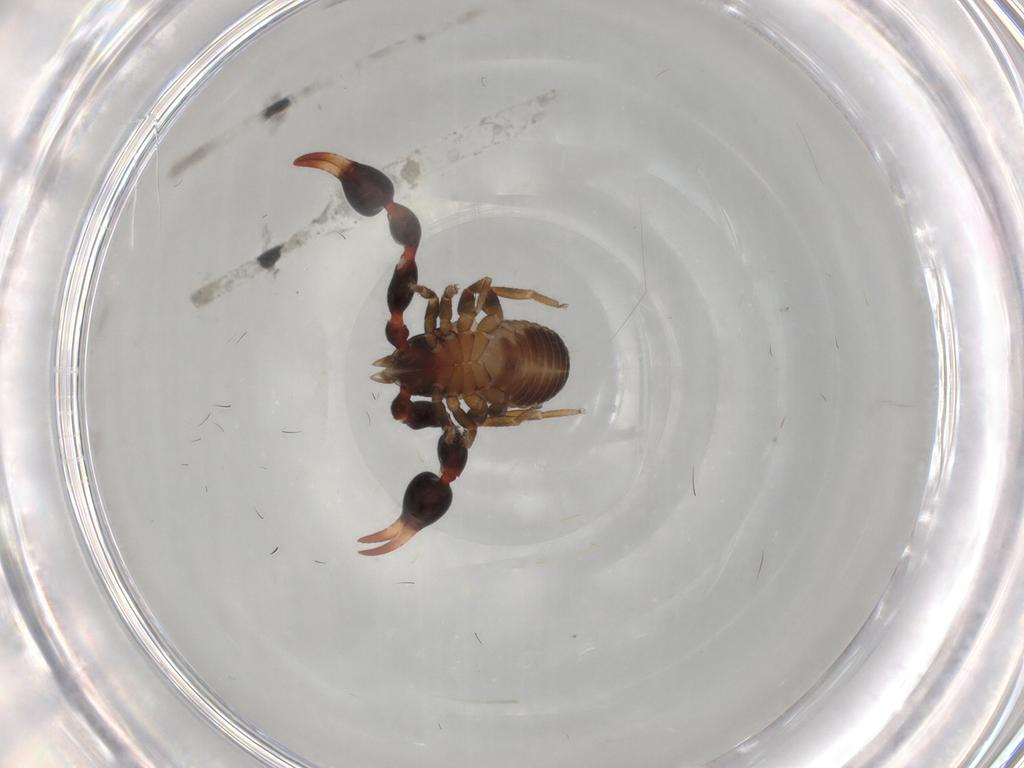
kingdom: Animalia
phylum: Arthropoda
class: Arachnida
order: Pseudoscorpiones
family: Chernetidae
